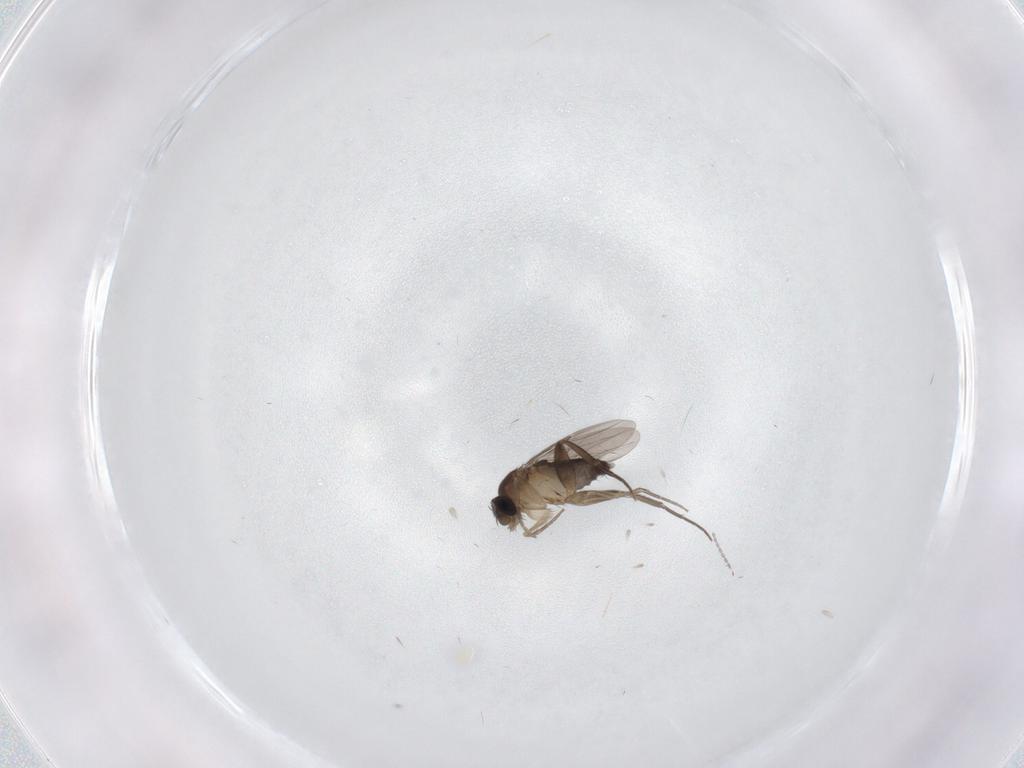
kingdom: Animalia
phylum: Arthropoda
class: Insecta
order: Diptera
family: Phoridae
